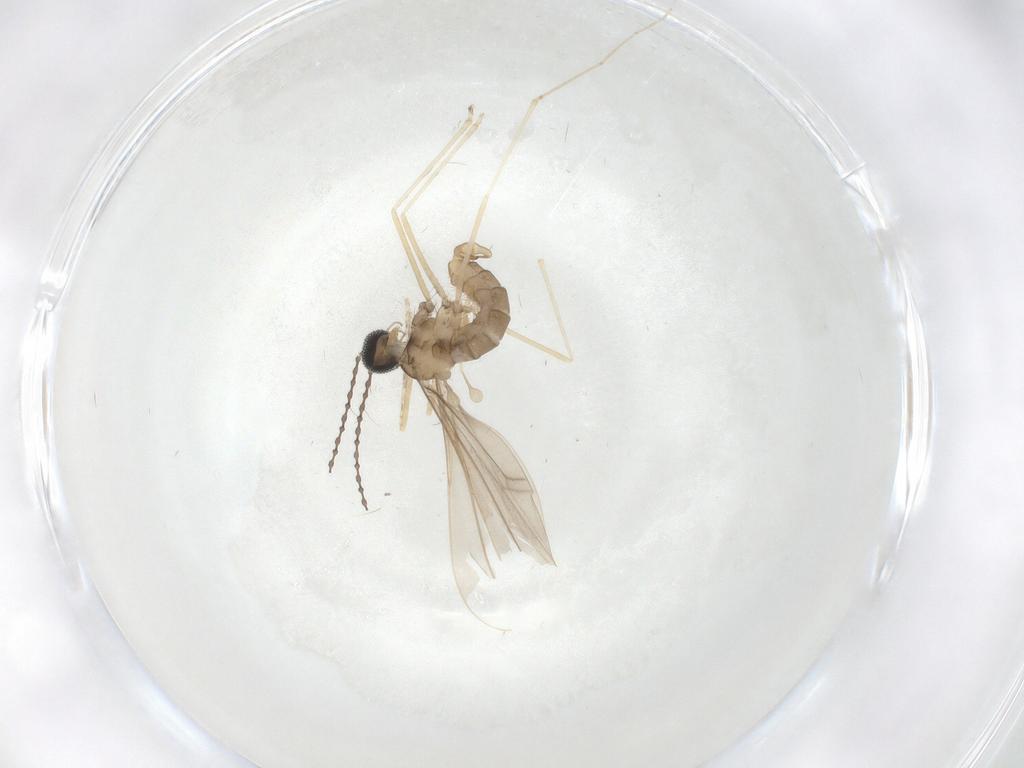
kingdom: Animalia
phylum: Arthropoda
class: Insecta
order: Diptera
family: Cecidomyiidae
